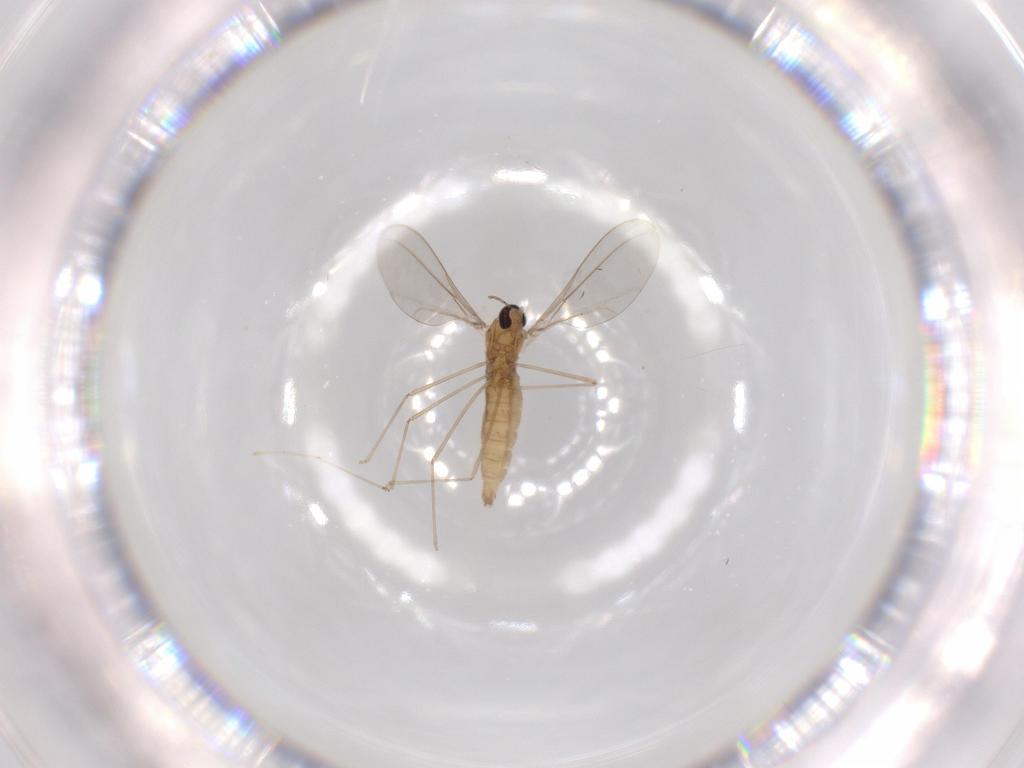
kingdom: Animalia
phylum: Arthropoda
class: Insecta
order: Diptera
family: Cecidomyiidae
